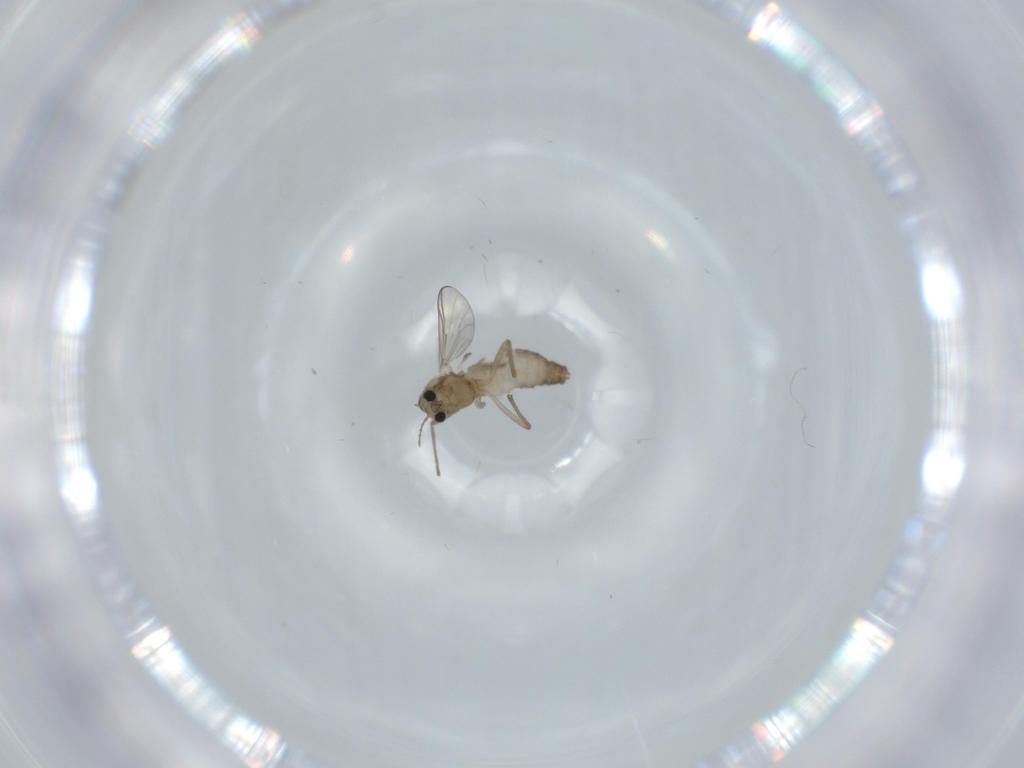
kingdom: Animalia
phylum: Arthropoda
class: Insecta
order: Diptera
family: Chironomidae
